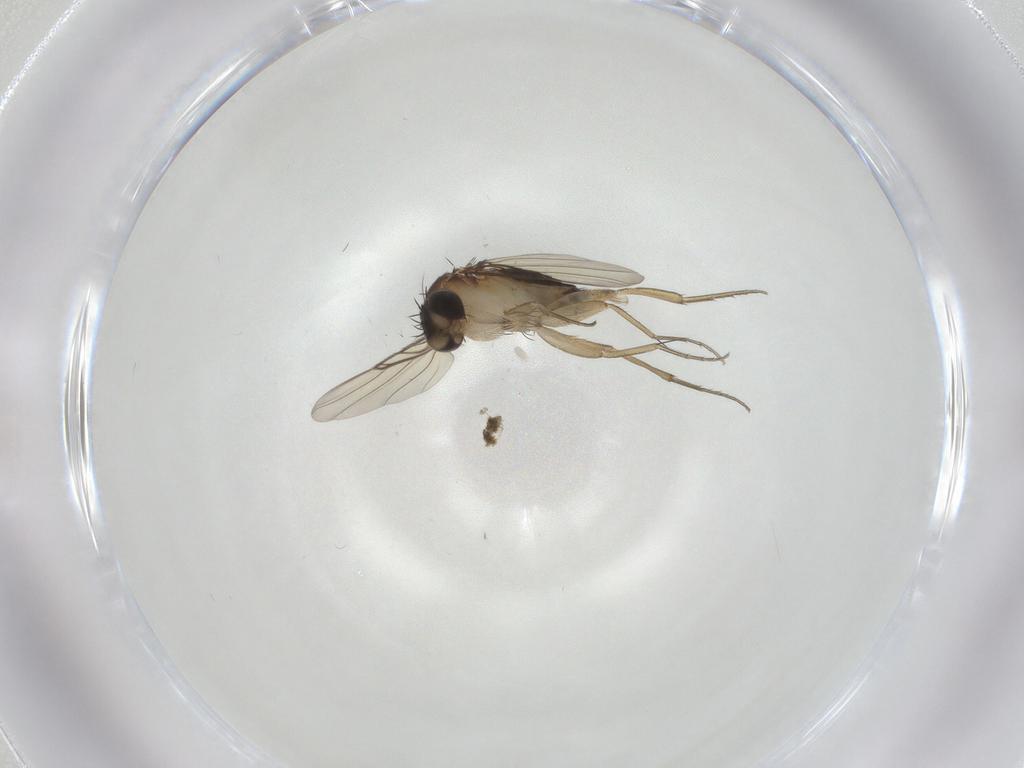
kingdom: Animalia
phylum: Arthropoda
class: Insecta
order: Diptera
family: Phoridae
